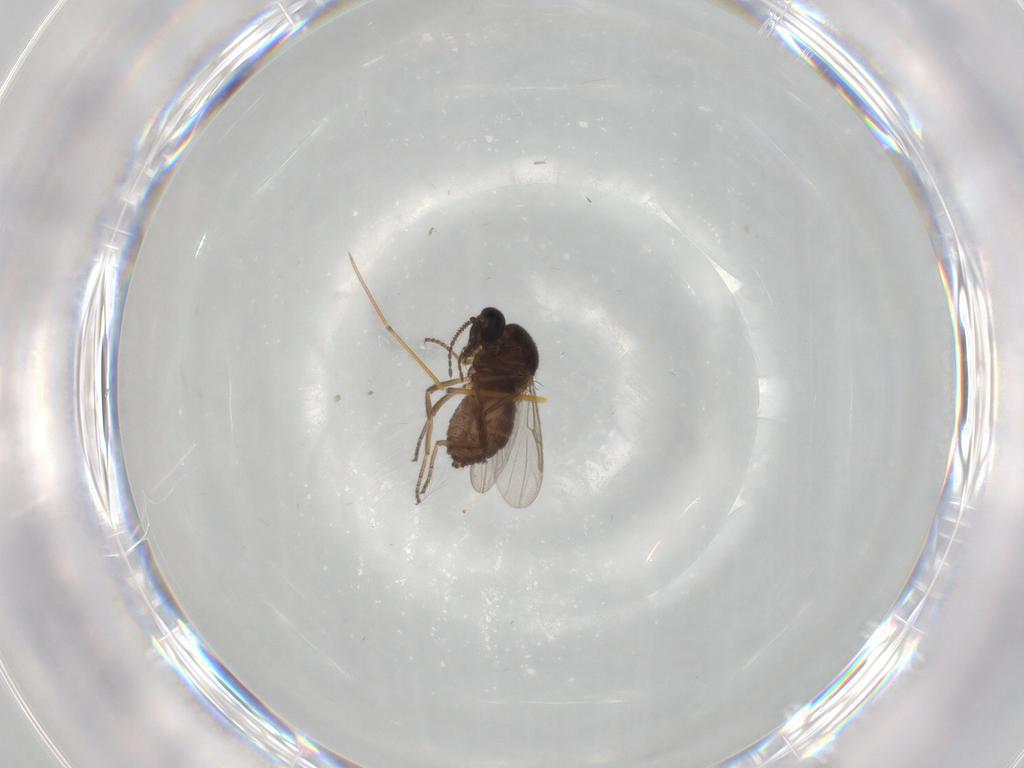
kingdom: Animalia
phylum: Arthropoda
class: Insecta
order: Diptera
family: Ceratopogonidae
